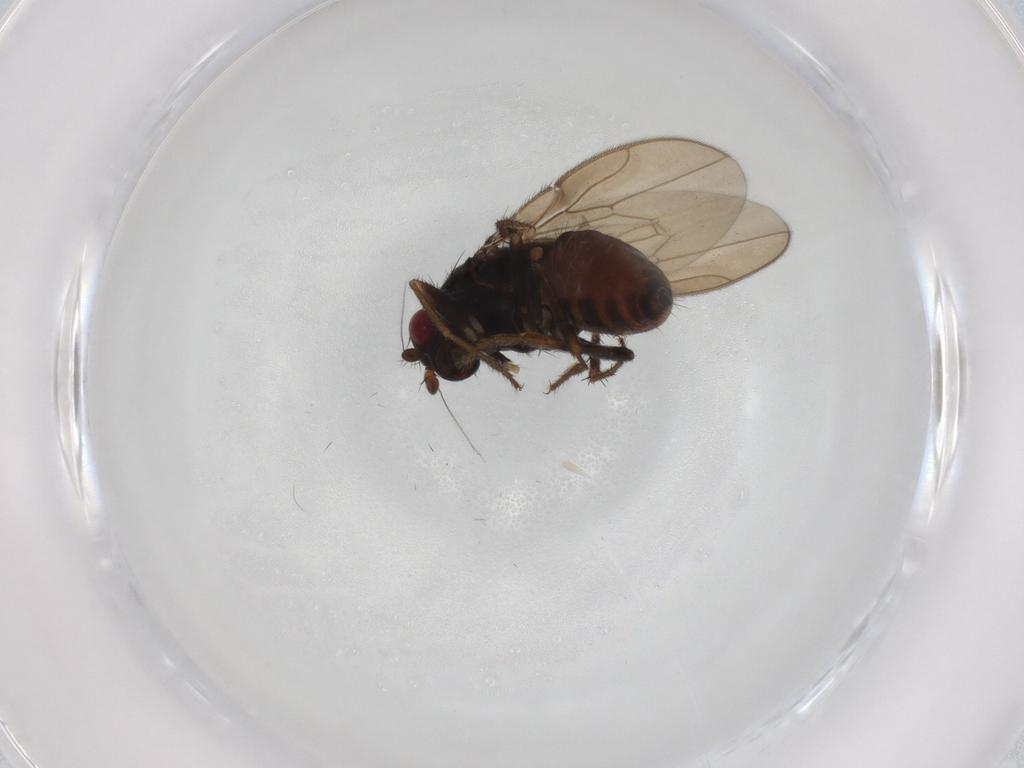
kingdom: Animalia
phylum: Arthropoda
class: Insecta
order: Diptera
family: Sphaeroceridae
